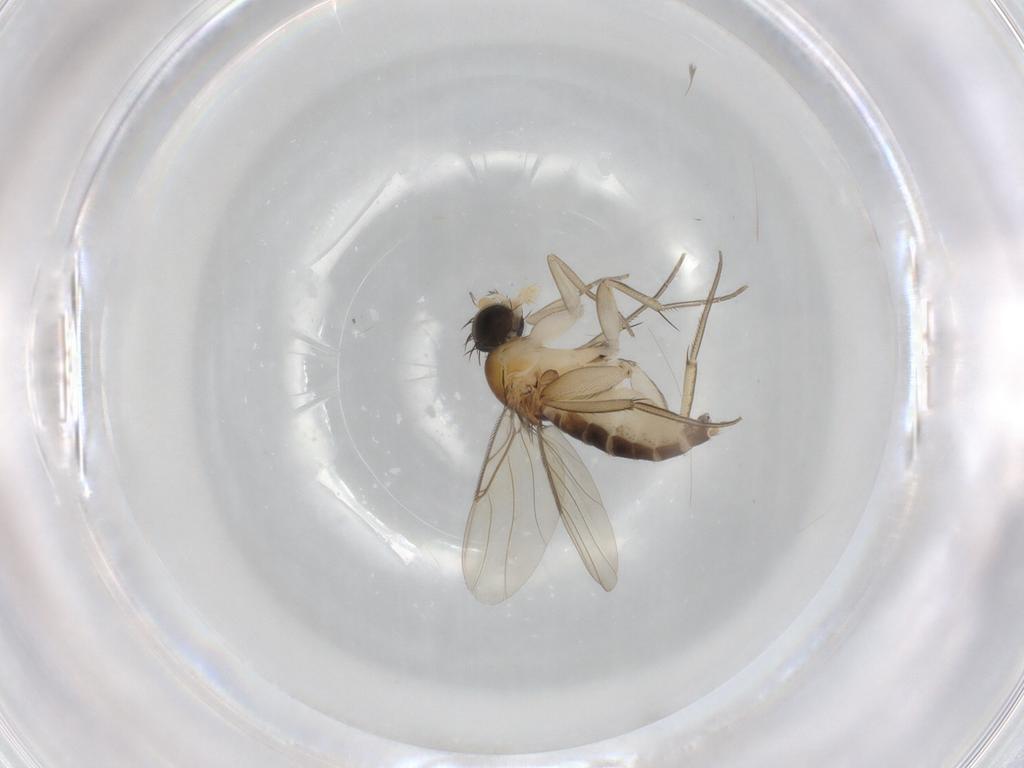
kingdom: Animalia
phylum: Arthropoda
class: Insecta
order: Diptera
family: Phoridae
